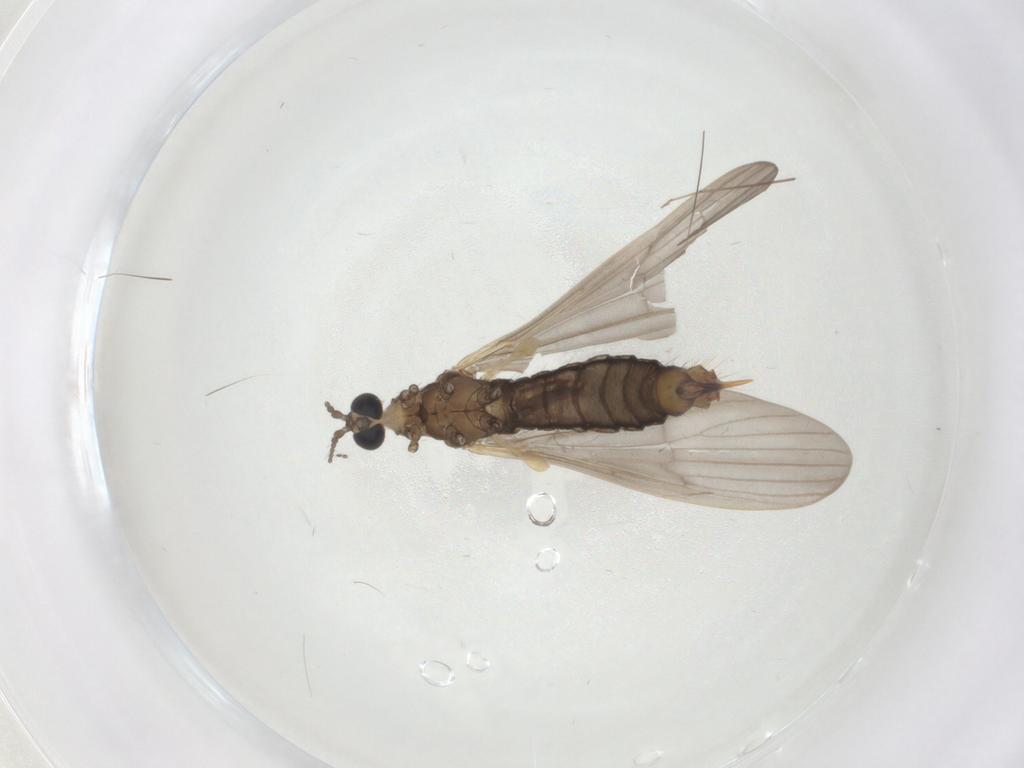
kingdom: Animalia
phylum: Arthropoda
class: Insecta
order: Diptera
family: Limoniidae
